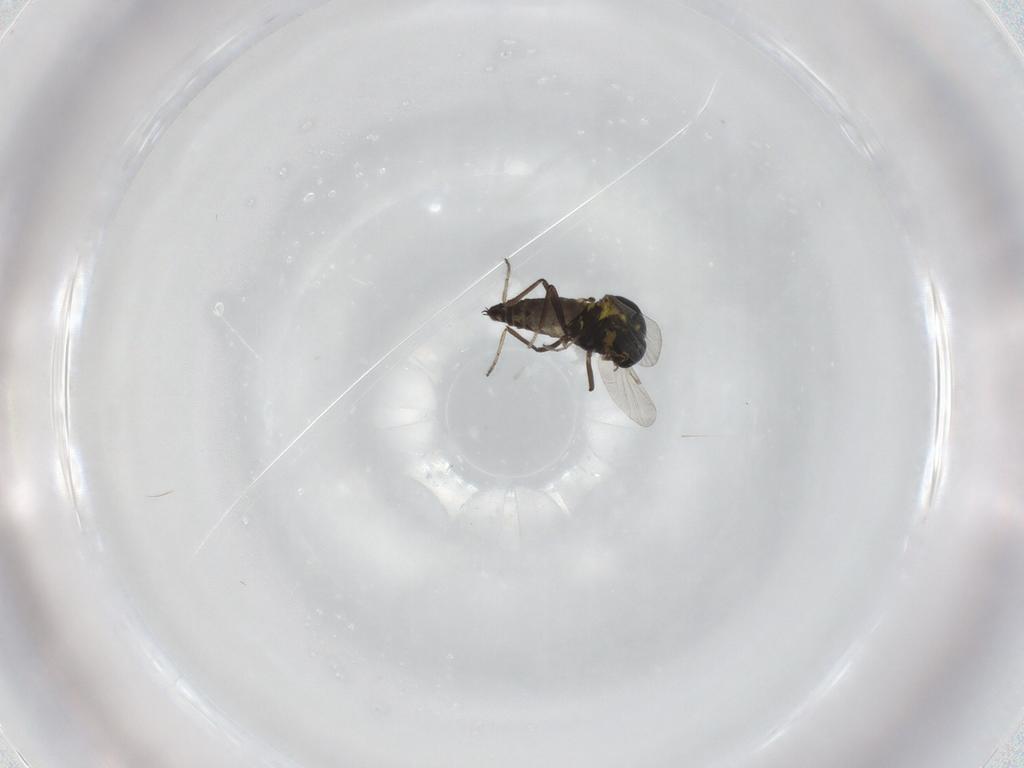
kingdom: Animalia
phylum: Arthropoda
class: Insecta
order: Diptera
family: Ceratopogonidae
